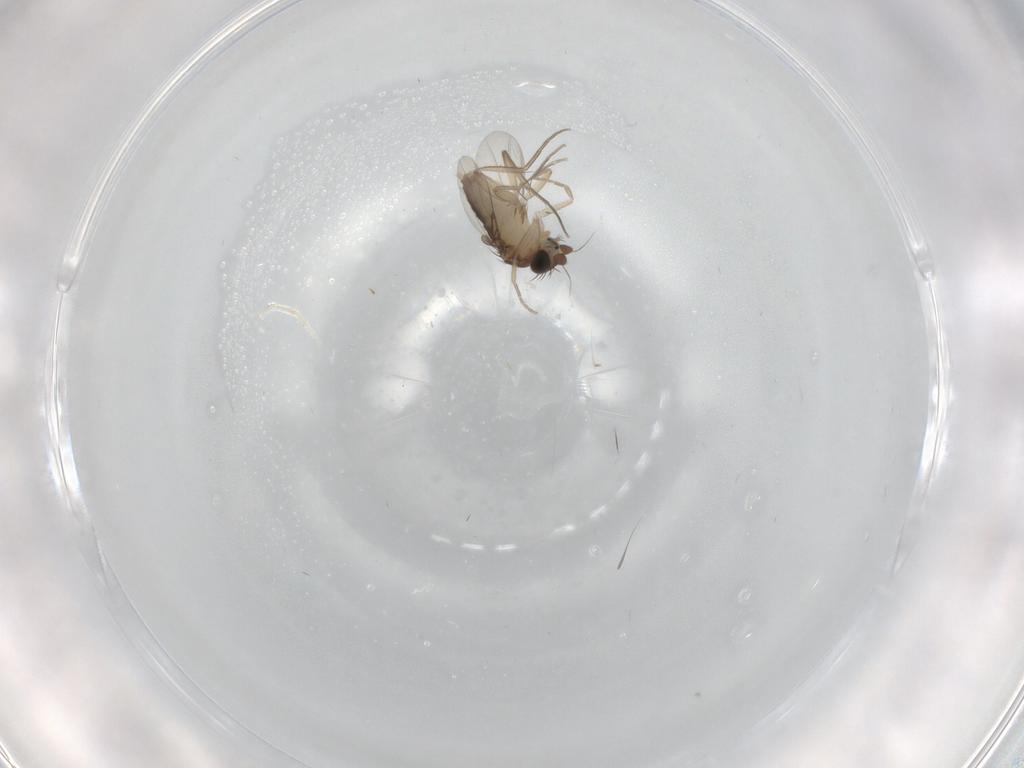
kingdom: Animalia
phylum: Arthropoda
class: Insecta
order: Diptera
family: Phoridae
